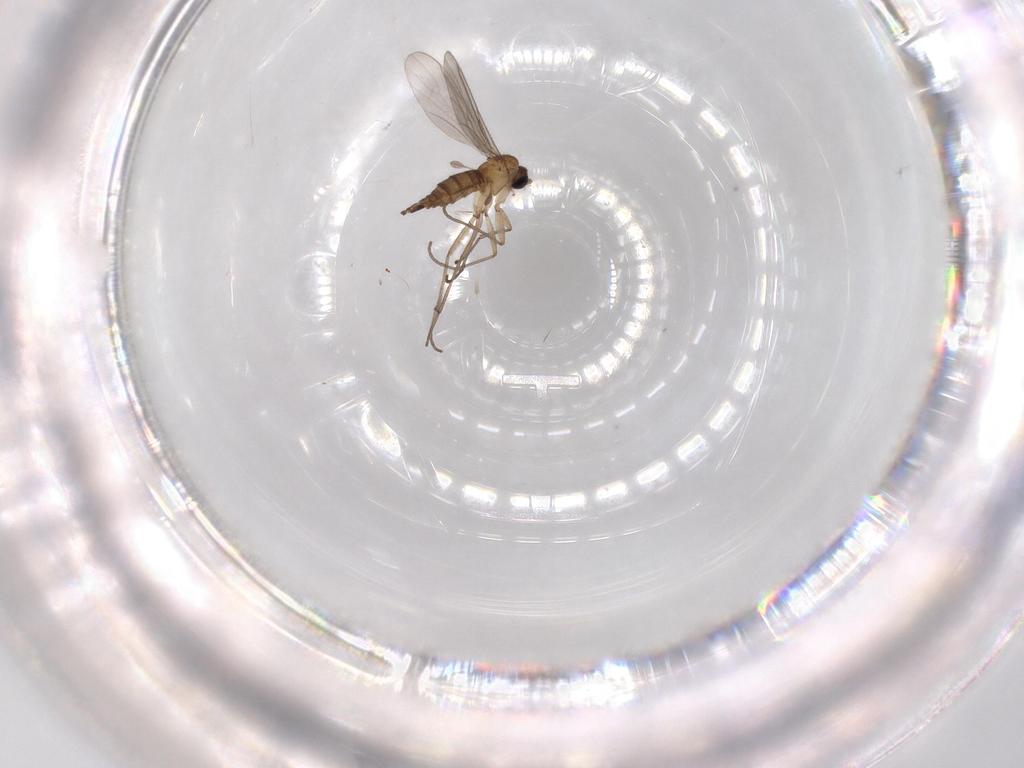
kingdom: Animalia
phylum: Arthropoda
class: Insecta
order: Diptera
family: Sciaridae
